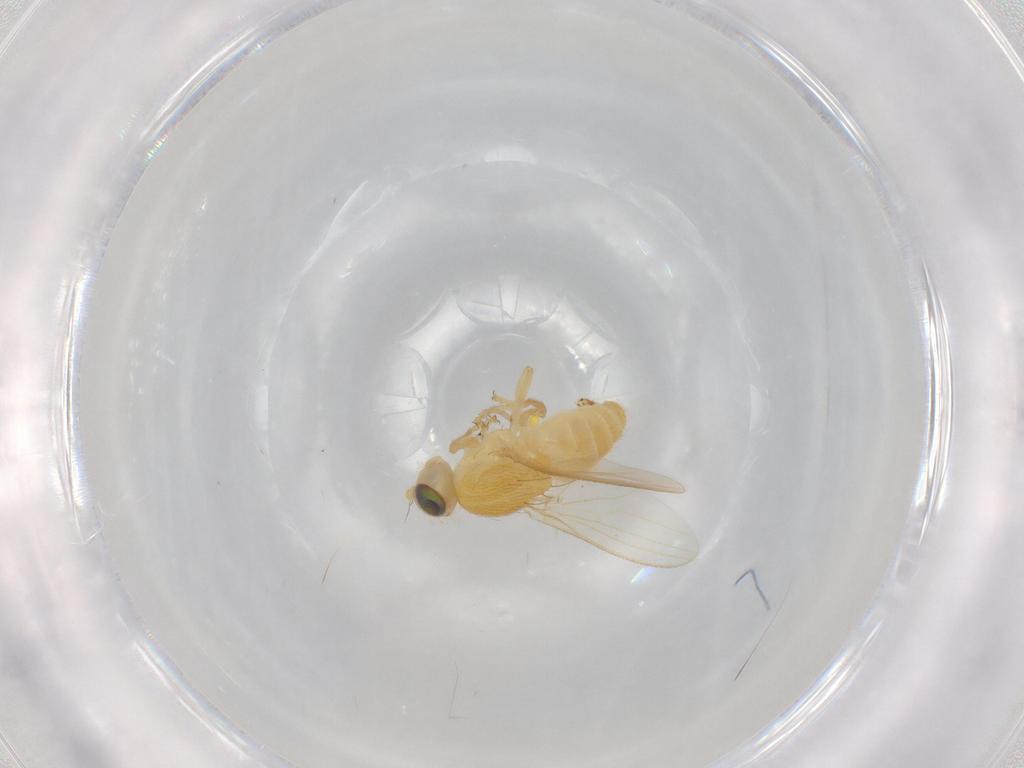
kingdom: Animalia
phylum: Arthropoda
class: Insecta
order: Diptera
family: Chyromyidae
